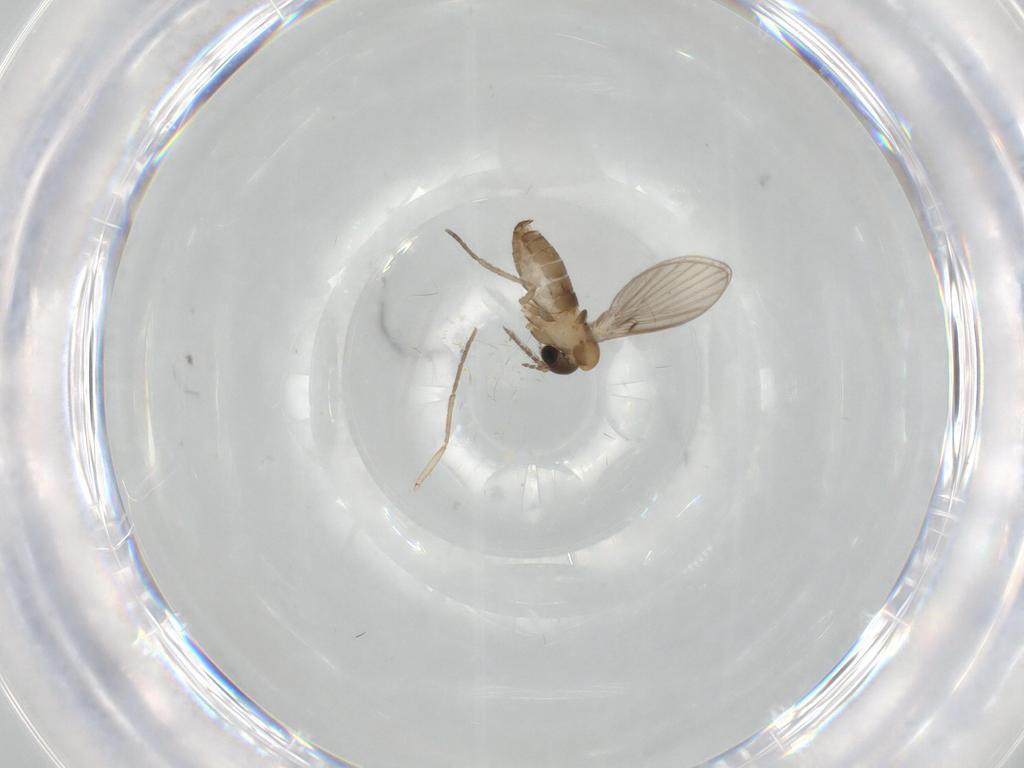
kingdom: Animalia
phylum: Arthropoda
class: Insecta
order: Diptera
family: Psychodidae
